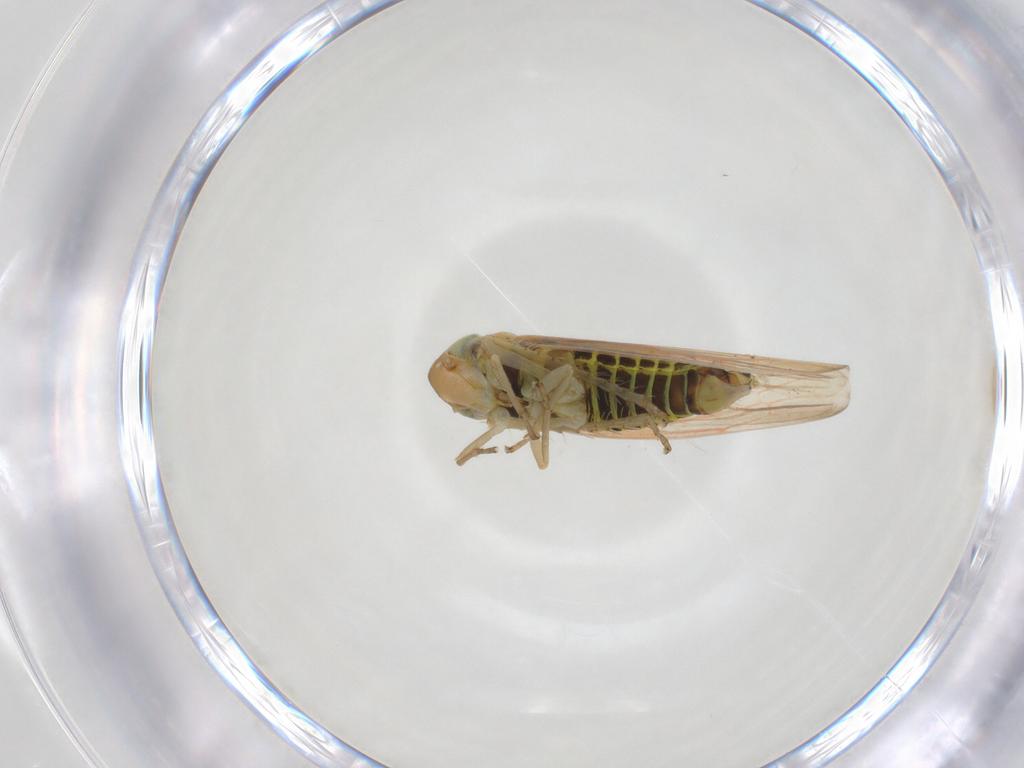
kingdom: Animalia
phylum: Arthropoda
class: Insecta
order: Hemiptera
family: Cicadellidae
